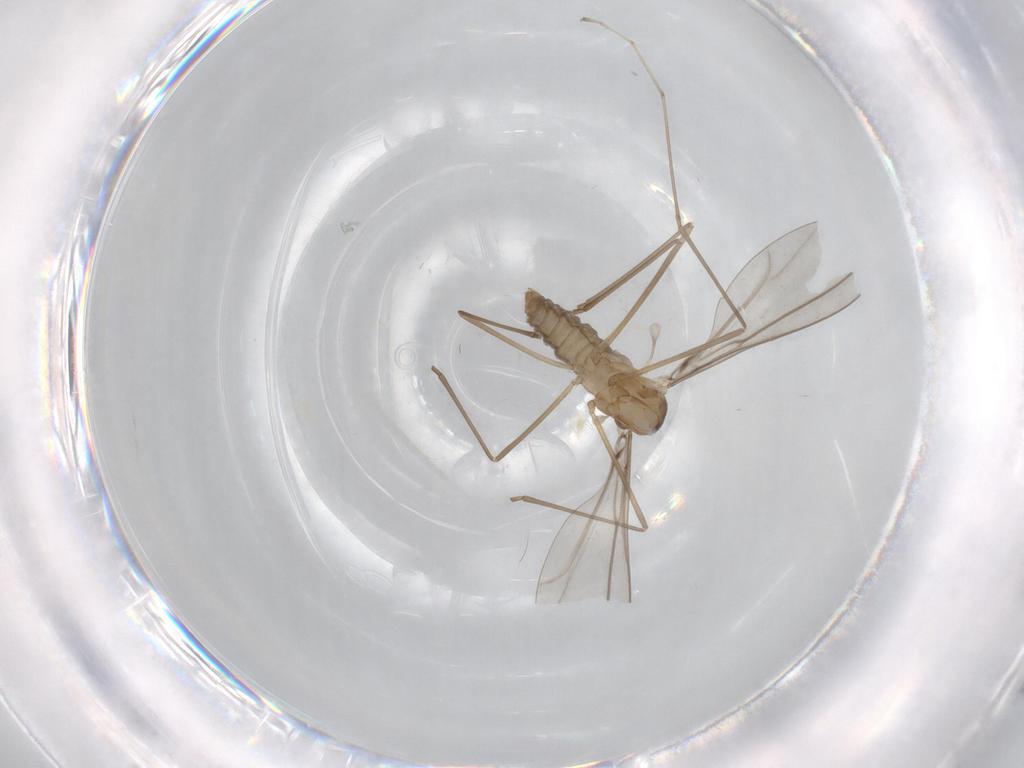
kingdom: Animalia
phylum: Arthropoda
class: Insecta
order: Diptera
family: Cecidomyiidae
